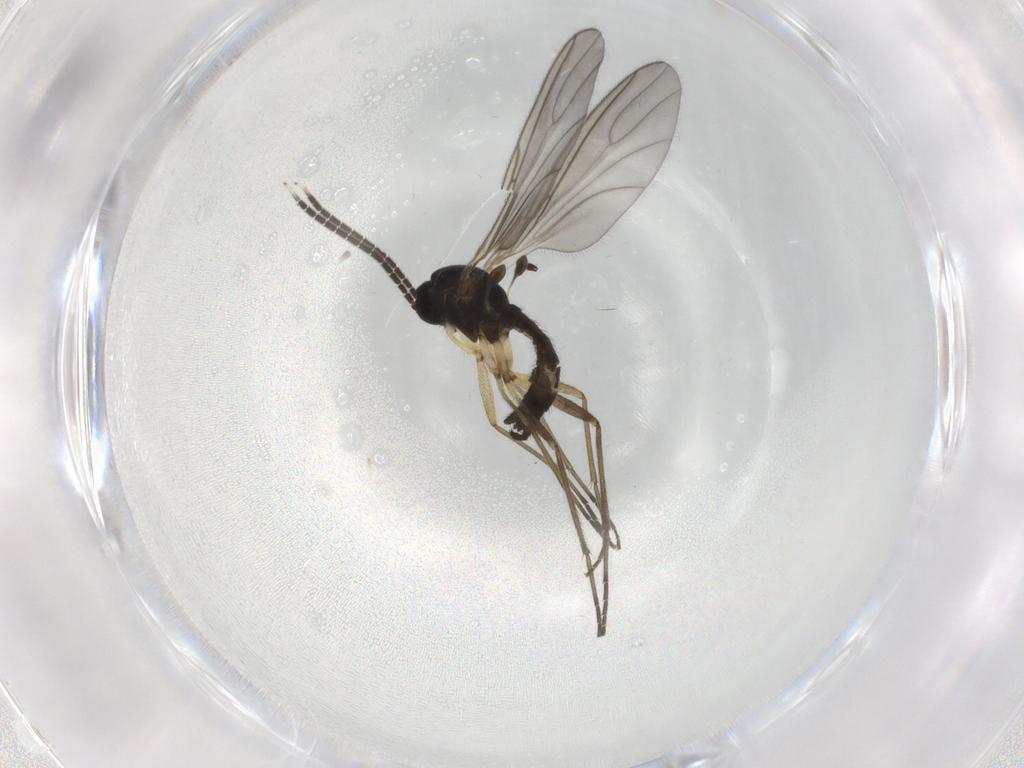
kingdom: Animalia
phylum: Arthropoda
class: Insecta
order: Diptera
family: Sciaridae
